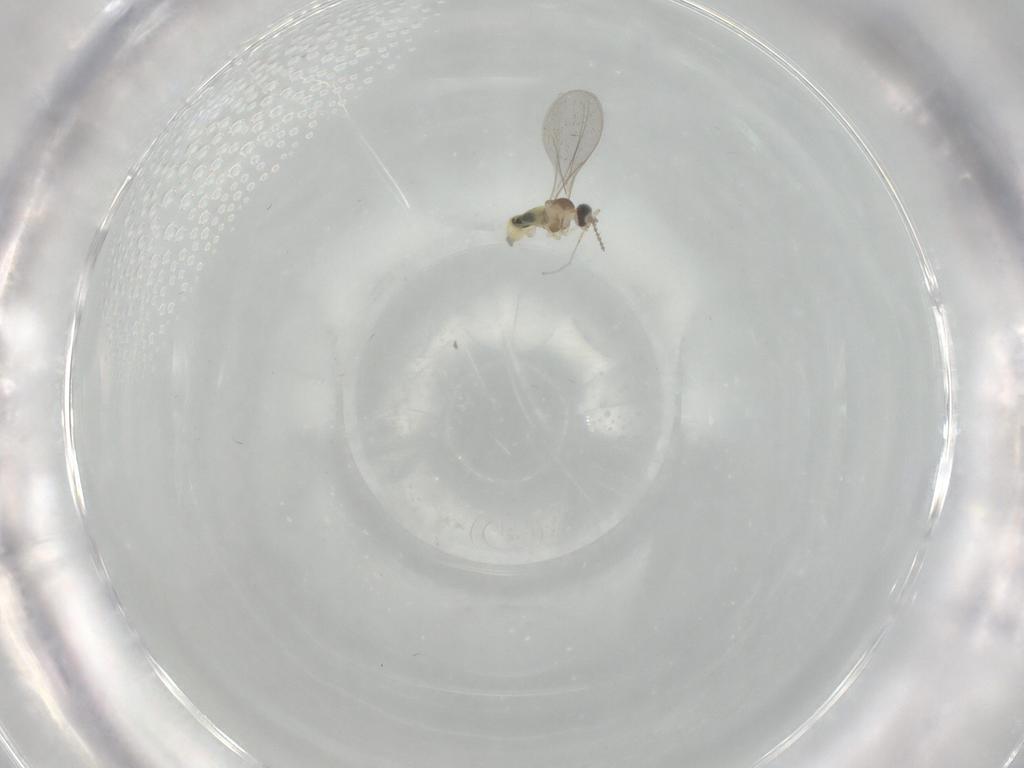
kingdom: Animalia
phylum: Arthropoda
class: Insecta
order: Diptera
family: Cecidomyiidae
